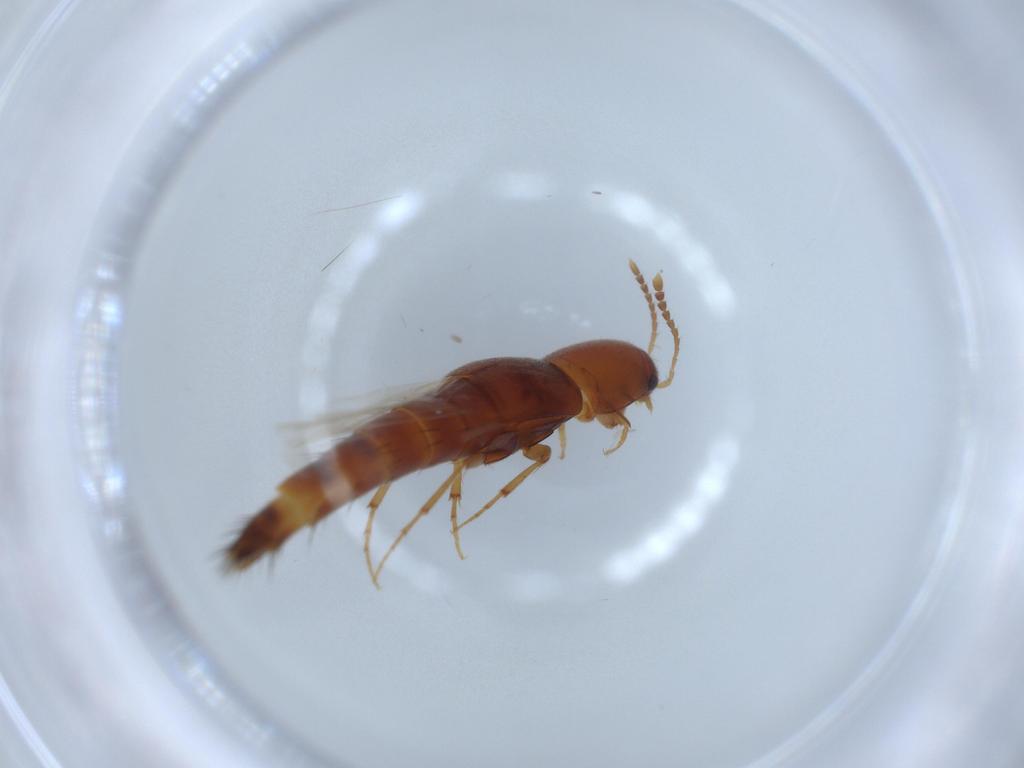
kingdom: Animalia
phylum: Arthropoda
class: Insecta
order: Coleoptera
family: Staphylinidae
